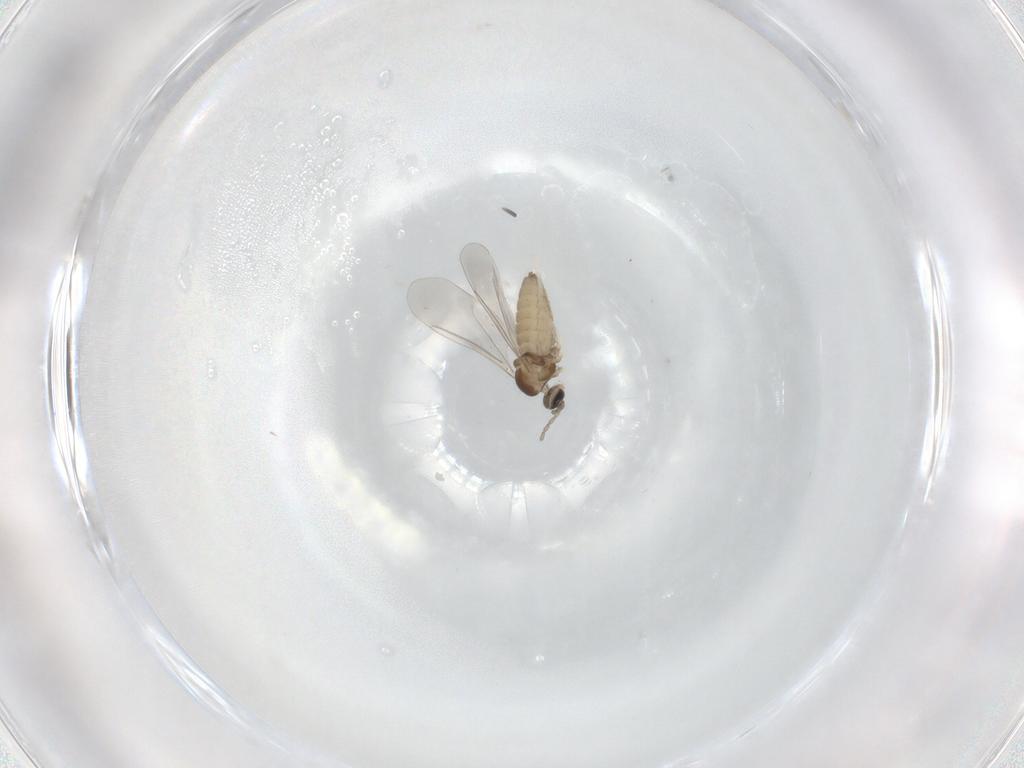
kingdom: Animalia
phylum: Arthropoda
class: Insecta
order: Diptera
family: Cecidomyiidae
